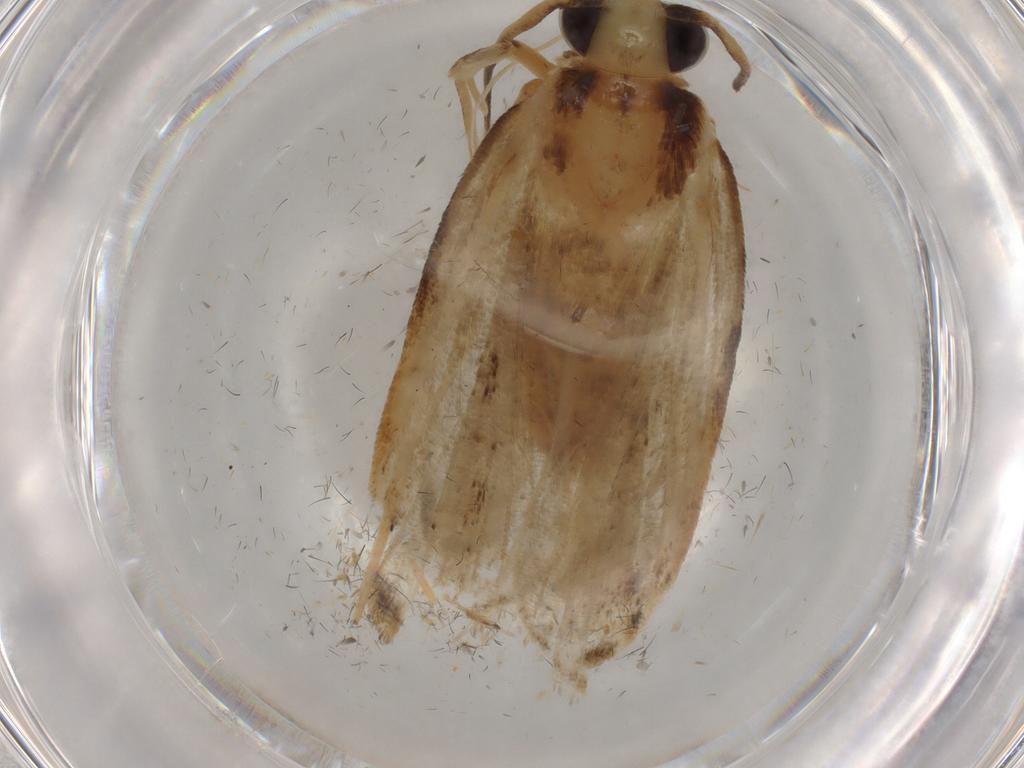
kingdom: Animalia
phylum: Arthropoda
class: Insecta
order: Lepidoptera
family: Gelechiidae
